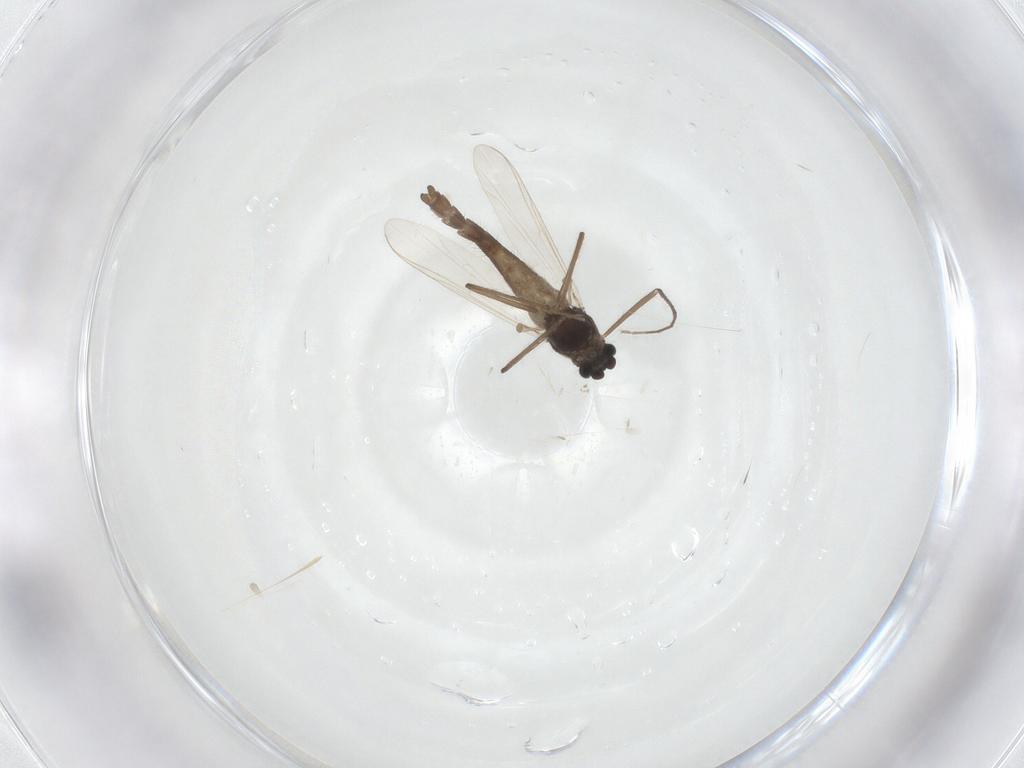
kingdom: Animalia
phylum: Arthropoda
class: Insecta
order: Diptera
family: Chironomidae
